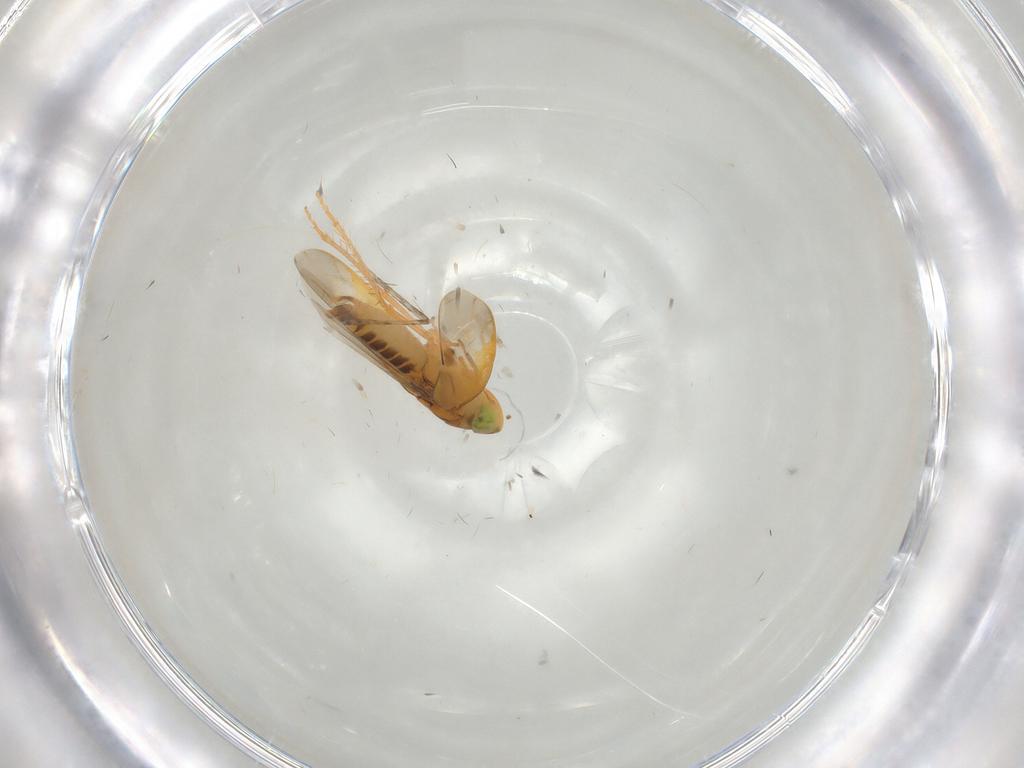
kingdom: Animalia
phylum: Arthropoda
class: Insecta
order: Hemiptera
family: Cicadellidae
